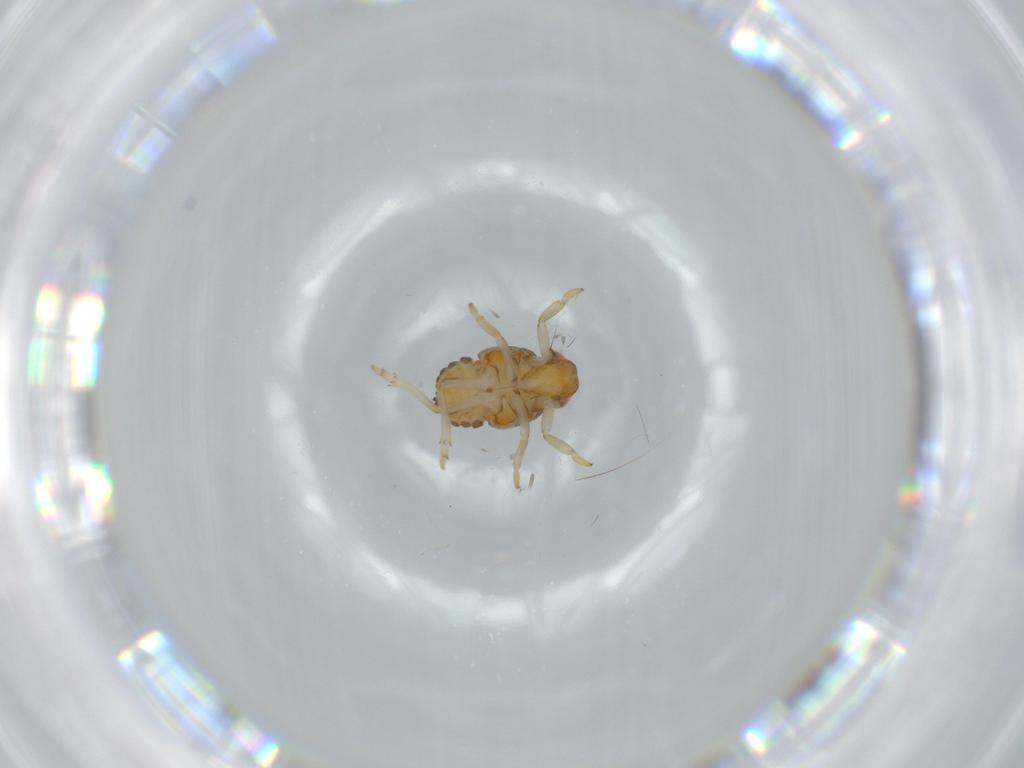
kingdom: Animalia
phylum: Arthropoda
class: Insecta
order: Hemiptera
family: Issidae
